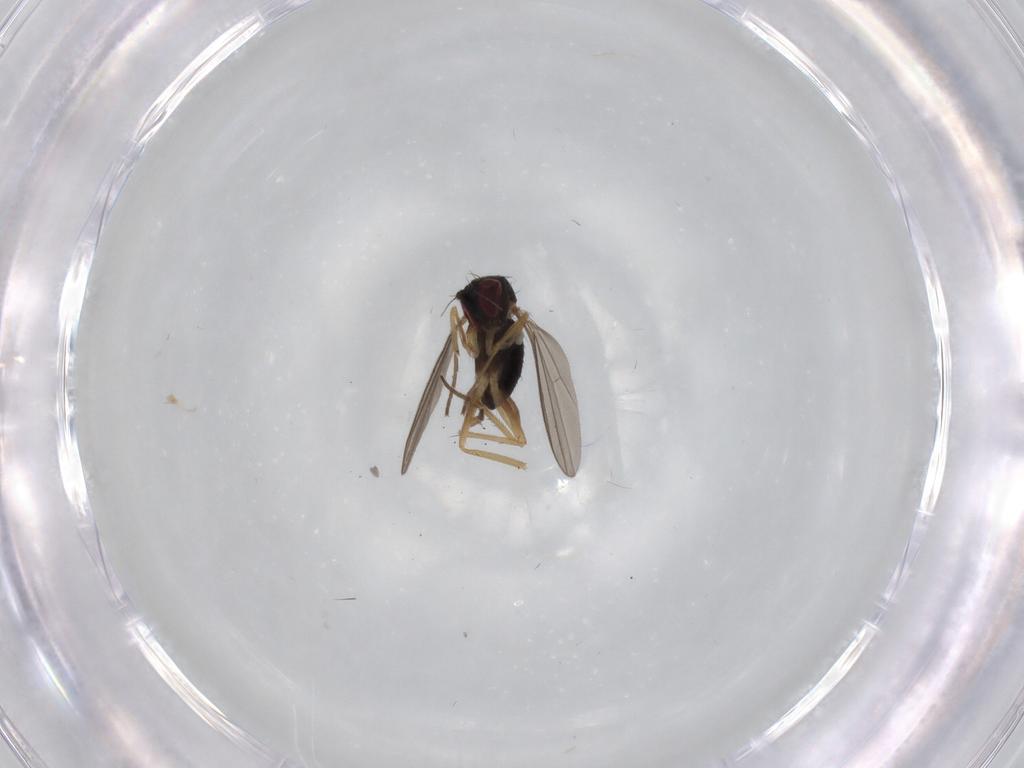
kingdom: Animalia
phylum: Arthropoda
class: Insecta
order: Diptera
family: Dolichopodidae
